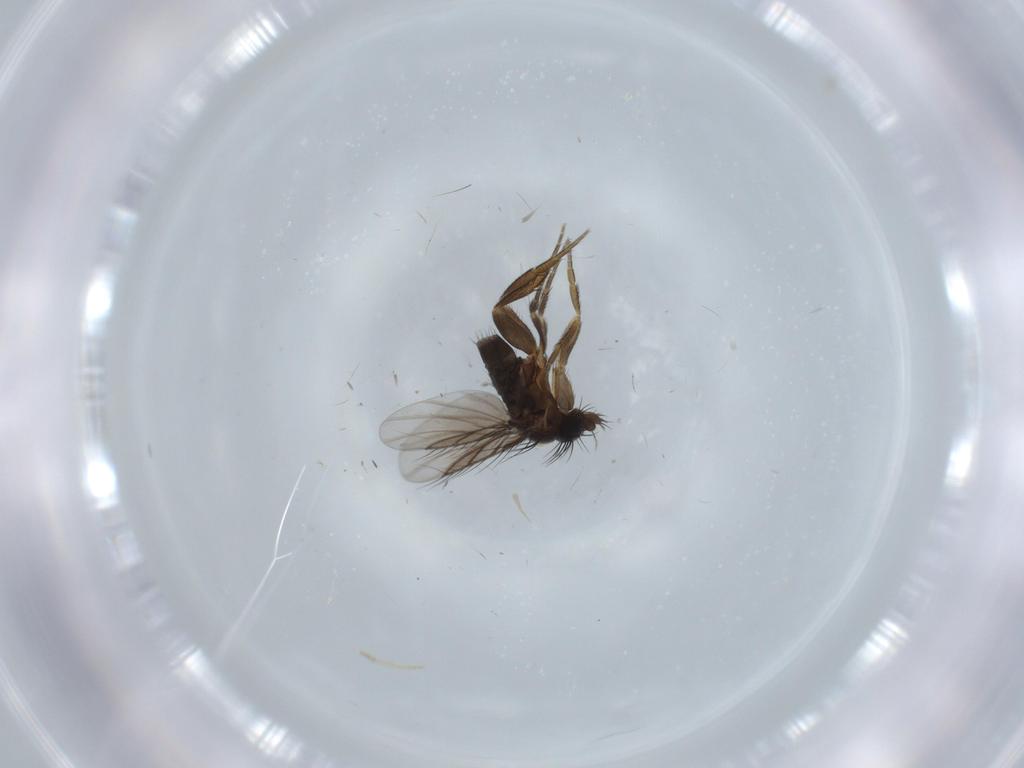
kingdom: Animalia
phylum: Arthropoda
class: Insecta
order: Diptera
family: Phoridae
